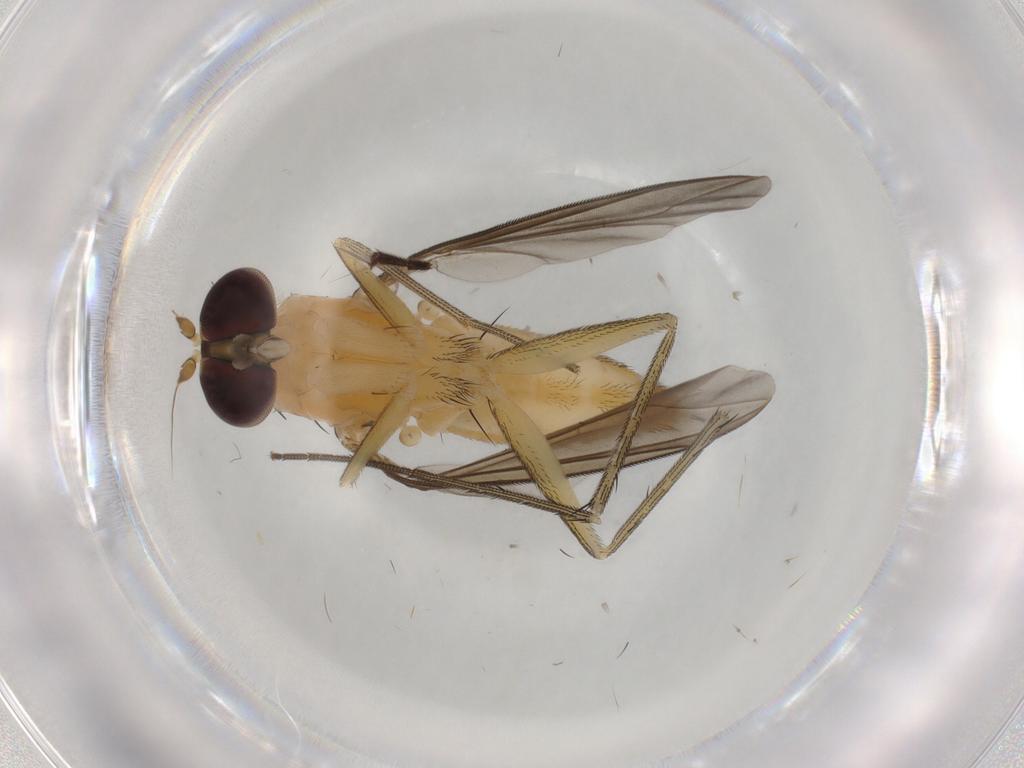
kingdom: Animalia
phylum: Arthropoda
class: Insecta
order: Diptera
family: Dolichopodidae
